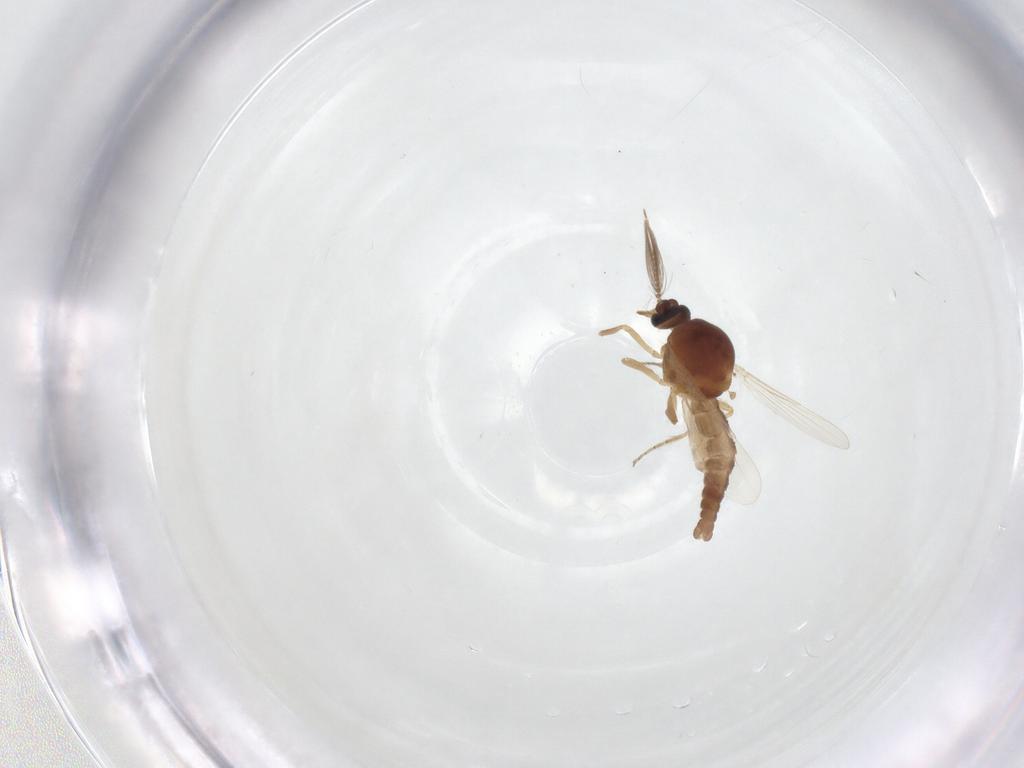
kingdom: Animalia
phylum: Arthropoda
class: Insecta
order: Diptera
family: Ceratopogonidae
